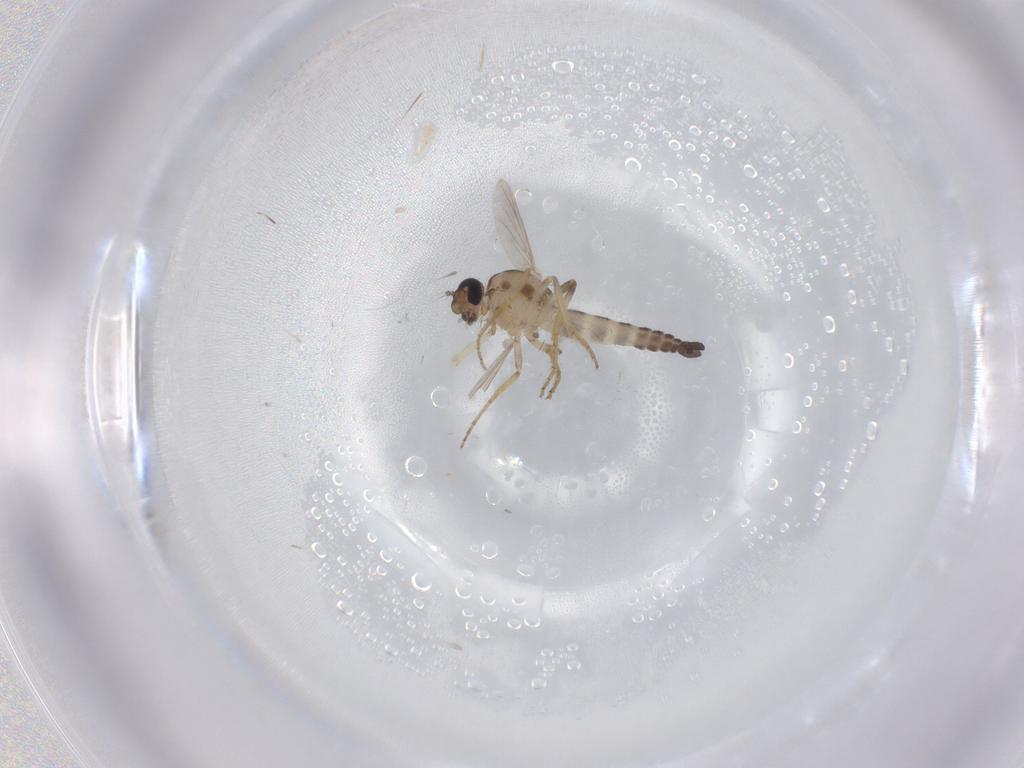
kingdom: Animalia
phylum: Arthropoda
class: Insecta
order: Diptera
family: Ceratopogonidae
